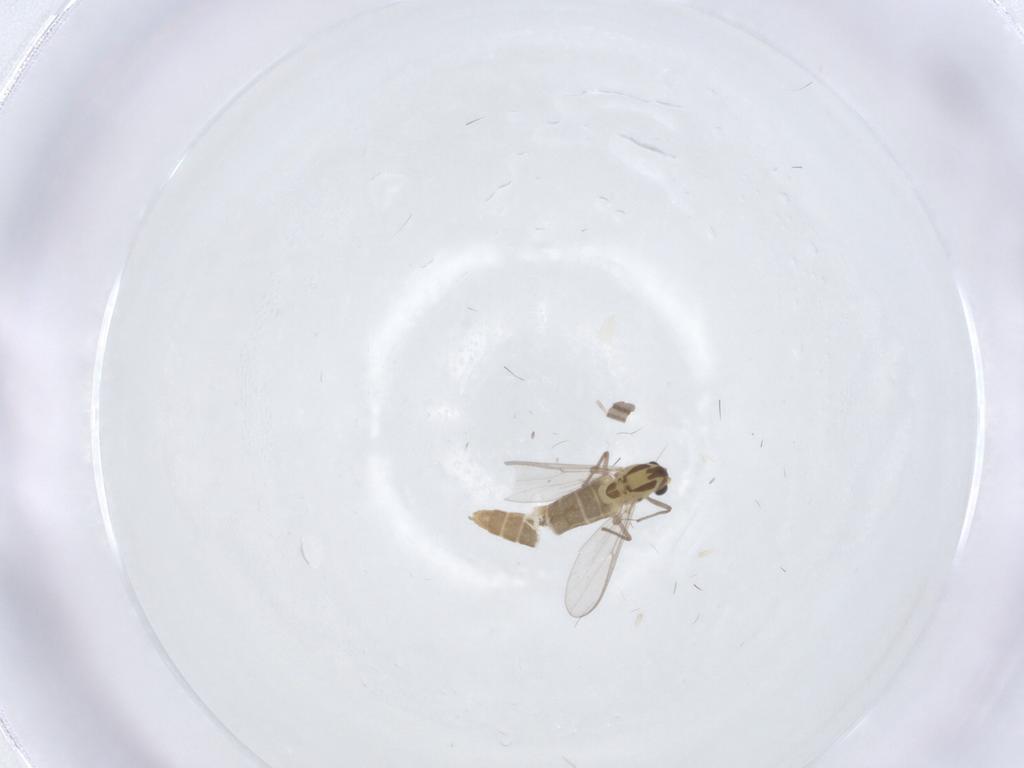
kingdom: Animalia
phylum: Arthropoda
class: Insecta
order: Diptera
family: Chironomidae
